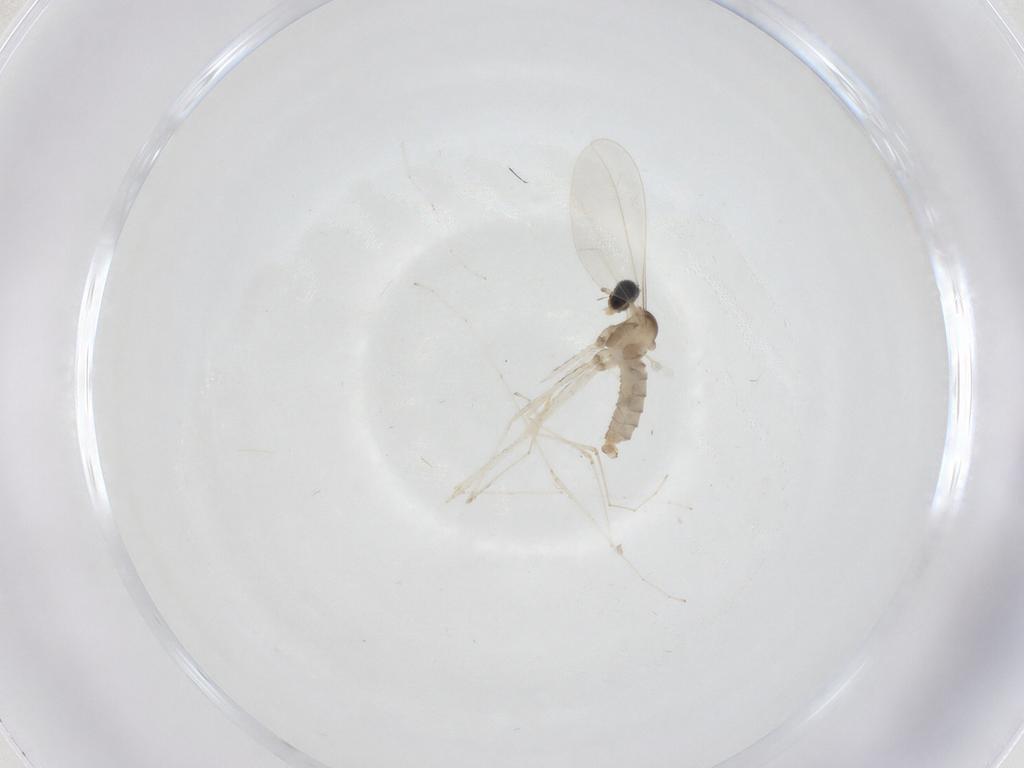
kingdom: Animalia
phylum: Arthropoda
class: Insecta
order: Diptera
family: Cecidomyiidae
